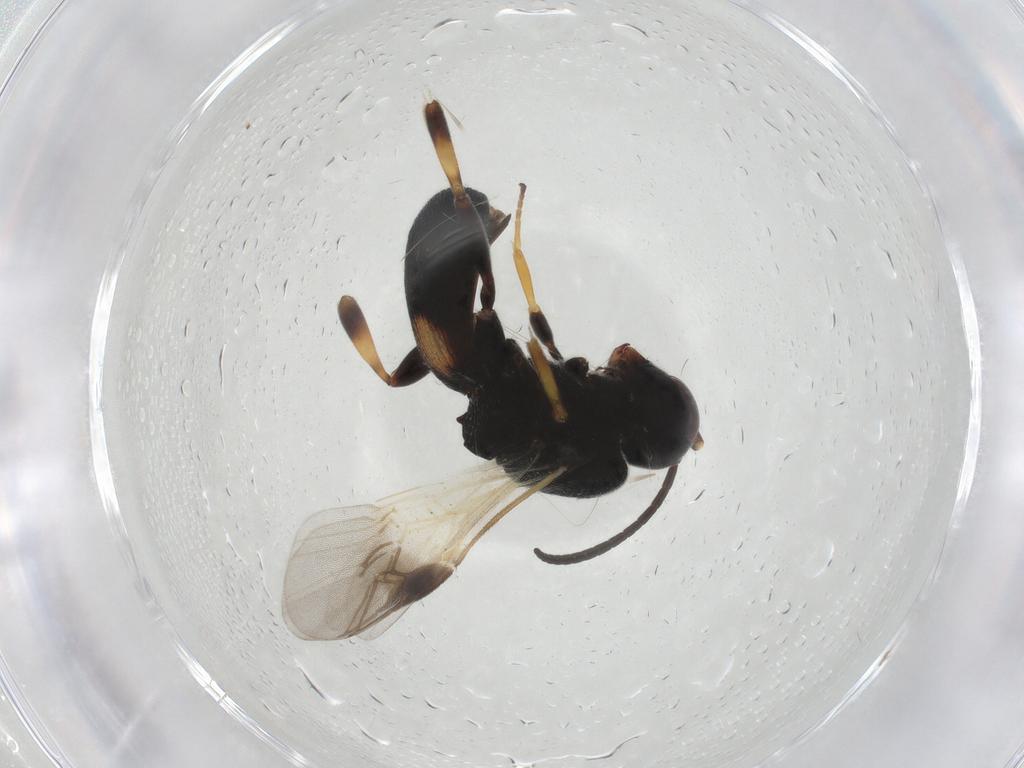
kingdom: Animalia
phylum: Arthropoda
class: Insecta
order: Hymenoptera
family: Braconidae
